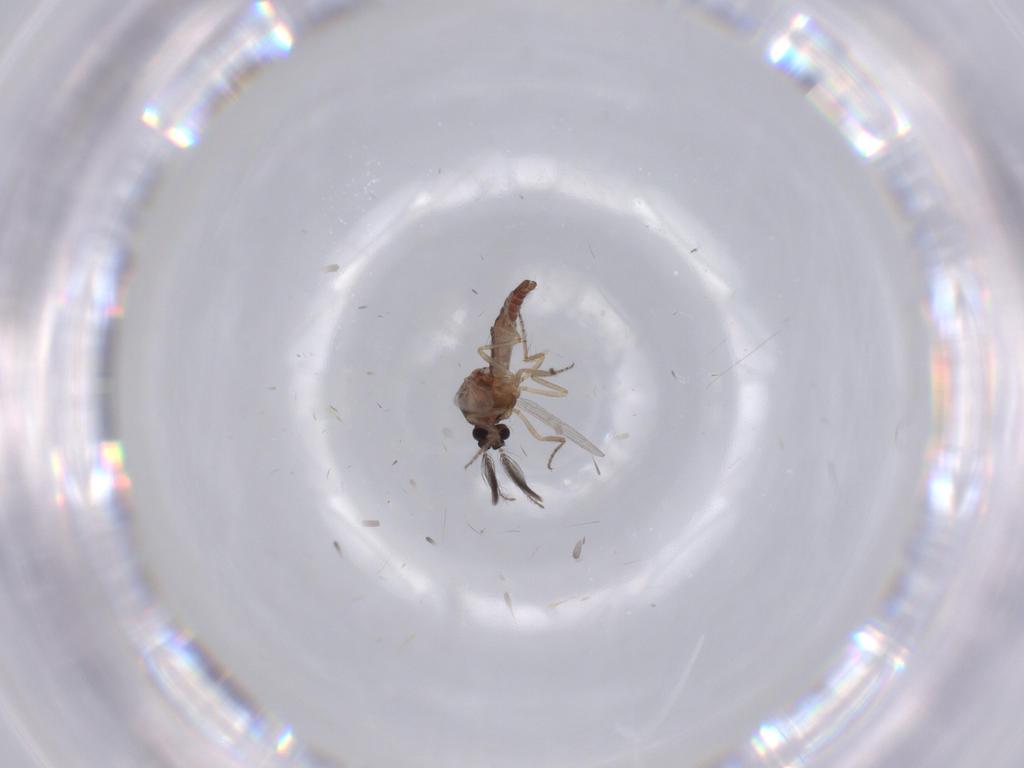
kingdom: Animalia
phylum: Arthropoda
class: Insecta
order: Diptera
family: Ceratopogonidae
